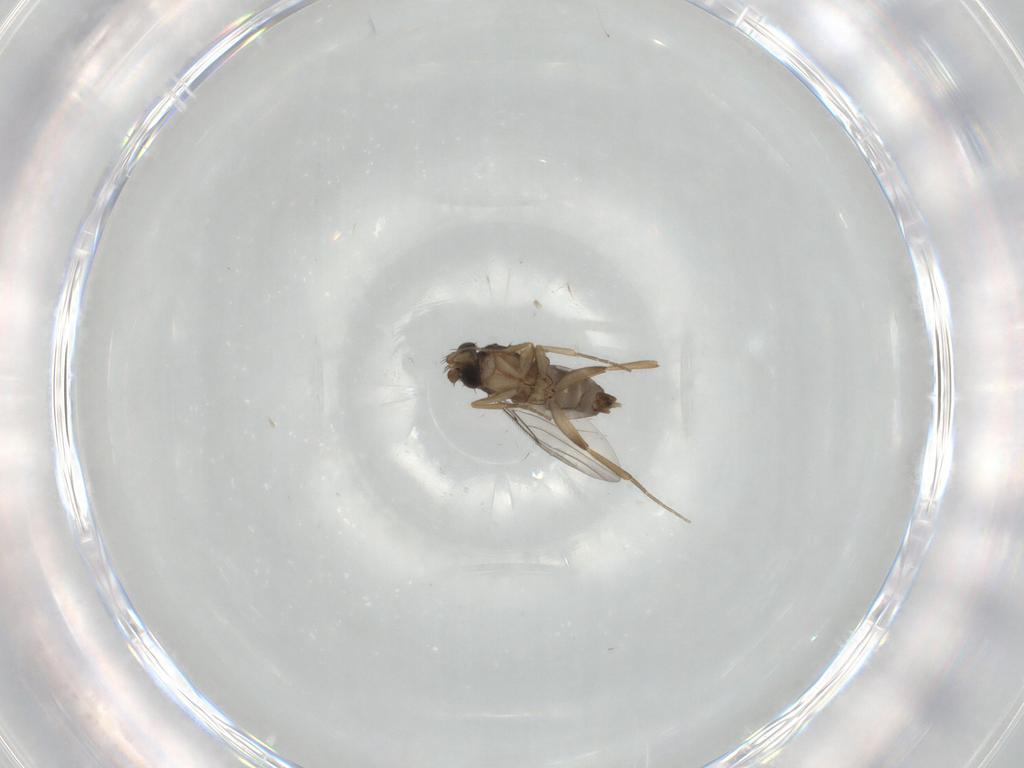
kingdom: Animalia
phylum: Arthropoda
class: Insecta
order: Diptera
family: Phoridae
